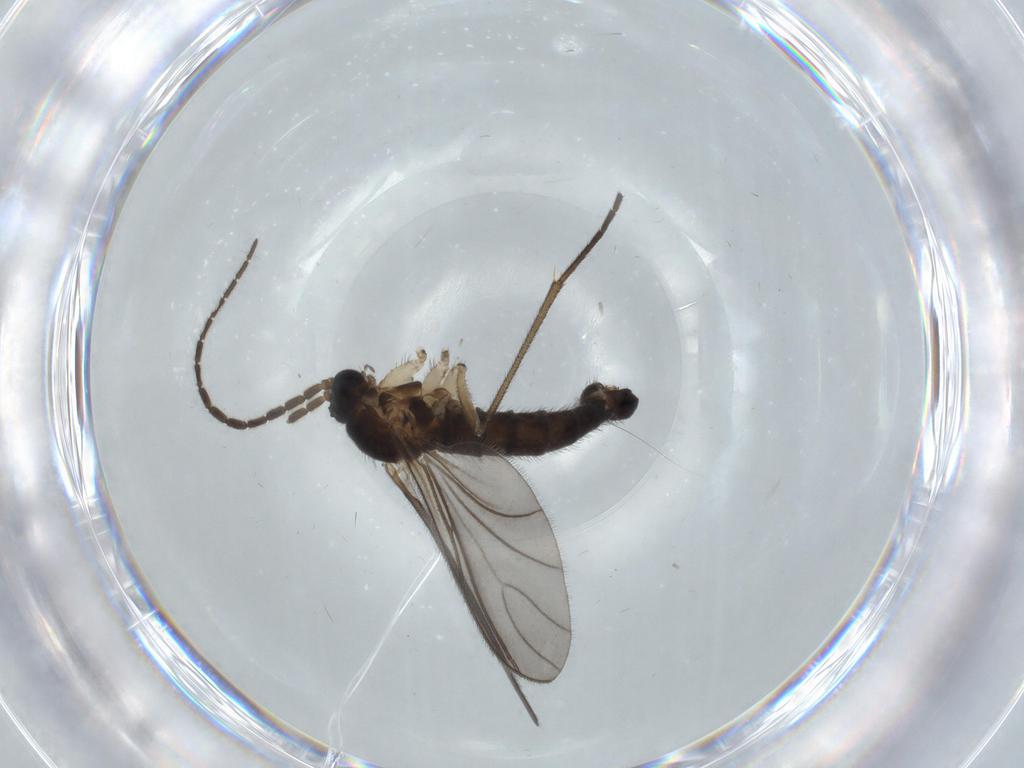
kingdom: Animalia
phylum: Arthropoda
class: Insecta
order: Diptera
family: Sciaridae
